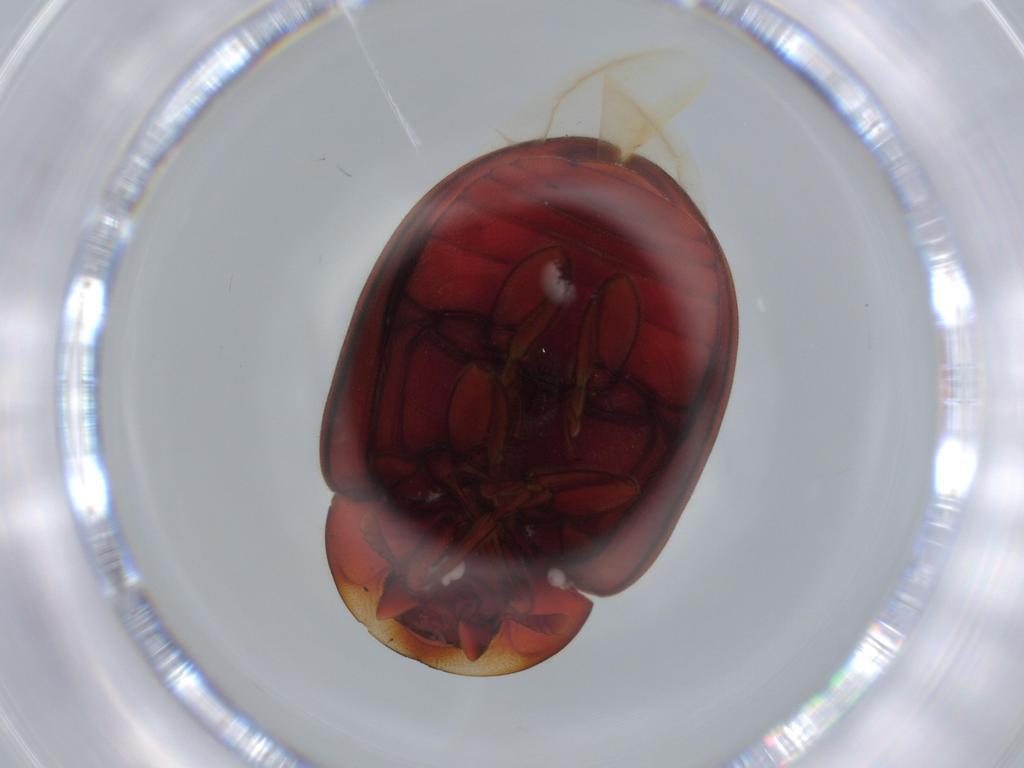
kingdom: Animalia
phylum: Arthropoda
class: Insecta
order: Coleoptera
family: Coccinellidae
